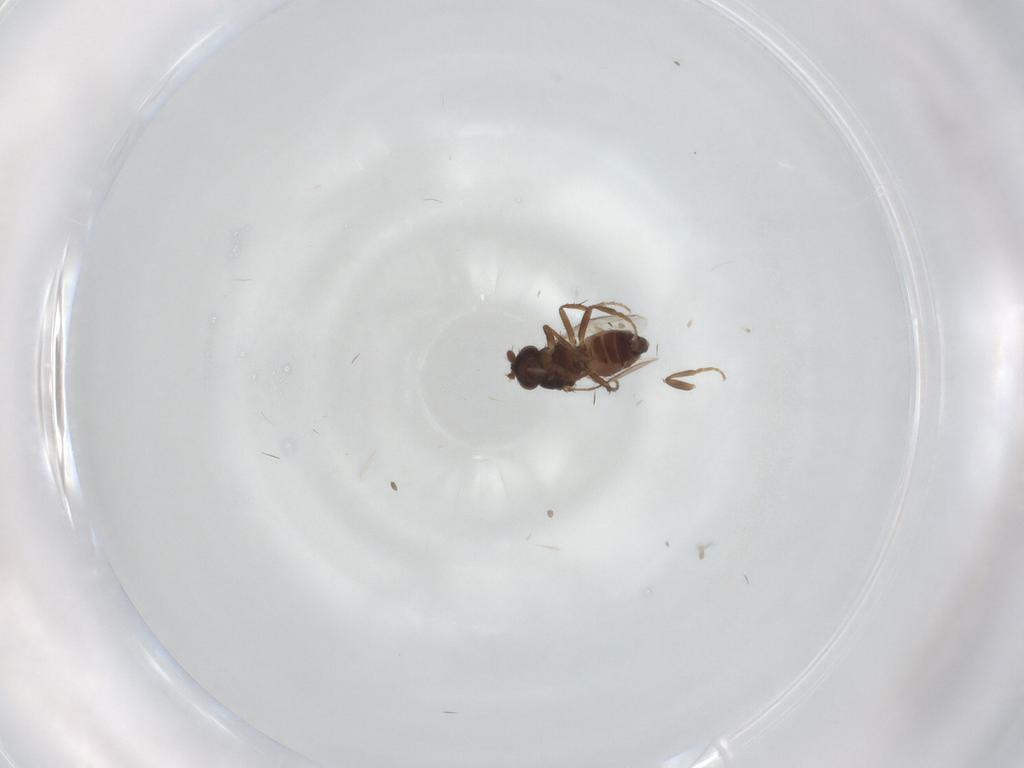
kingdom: Animalia
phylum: Arthropoda
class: Insecta
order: Diptera
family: Sphaeroceridae
